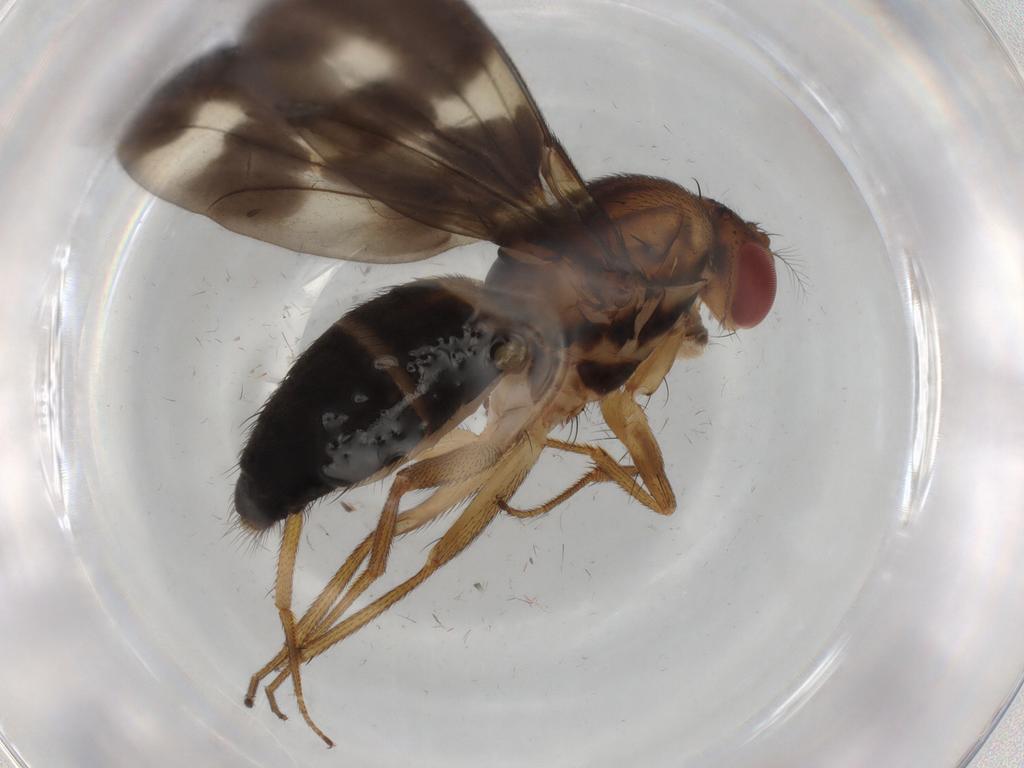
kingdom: Animalia
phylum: Arthropoda
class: Insecta
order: Diptera
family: Drosophilidae
